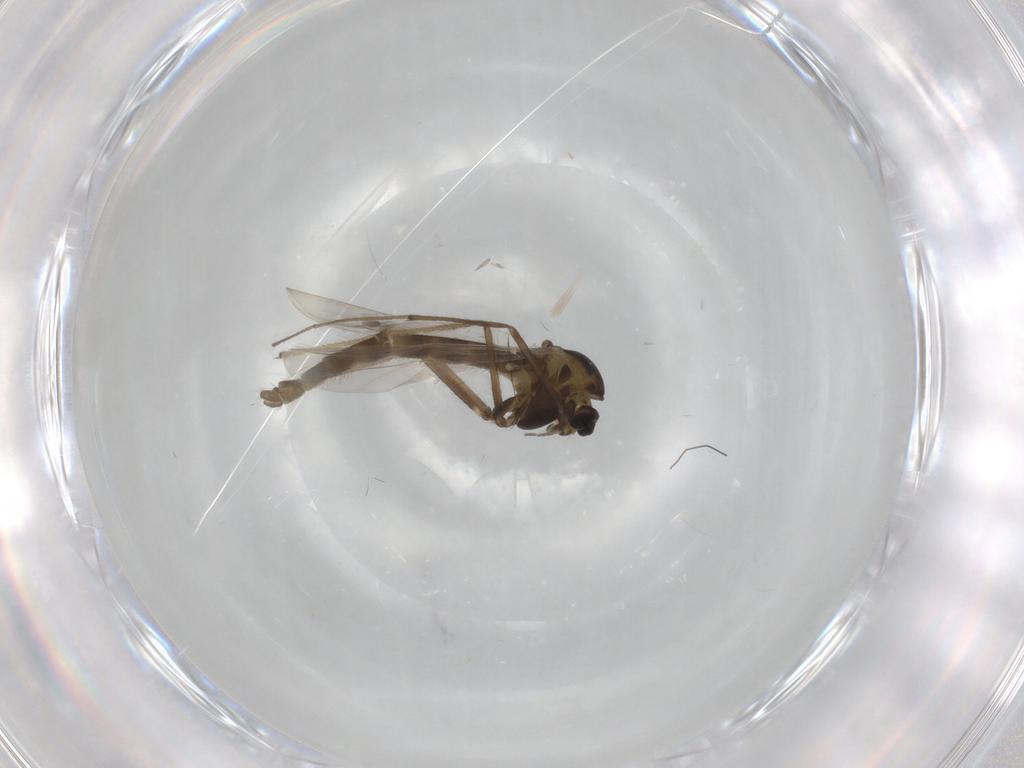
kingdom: Animalia
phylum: Arthropoda
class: Insecta
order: Diptera
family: Chironomidae
